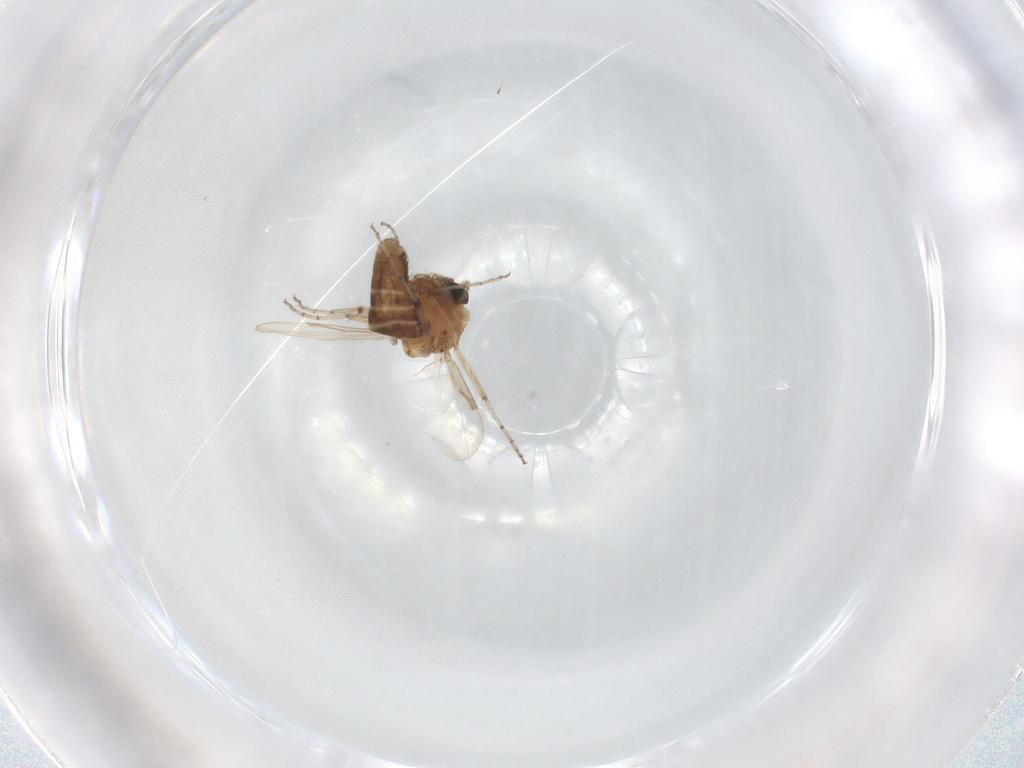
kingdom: Animalia
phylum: Arthropoda
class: Insecta
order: Diptera
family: Ceratopogonidae
